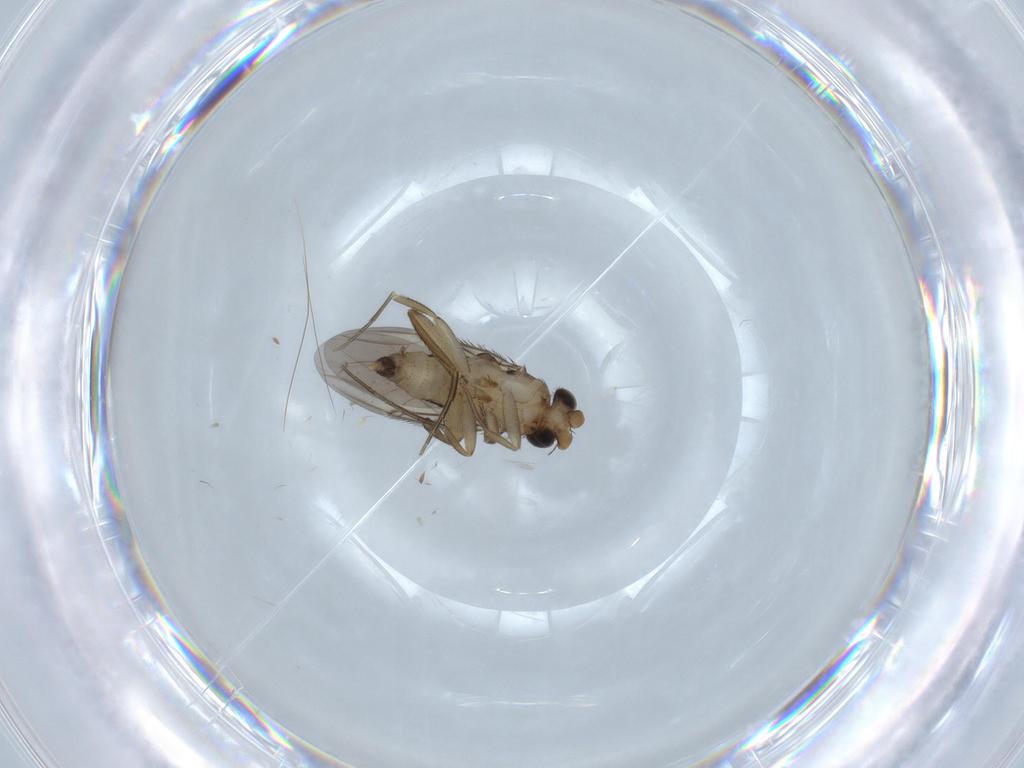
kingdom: Animalia
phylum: Arthropoda
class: Insecta
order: Diptera
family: Phoridae
